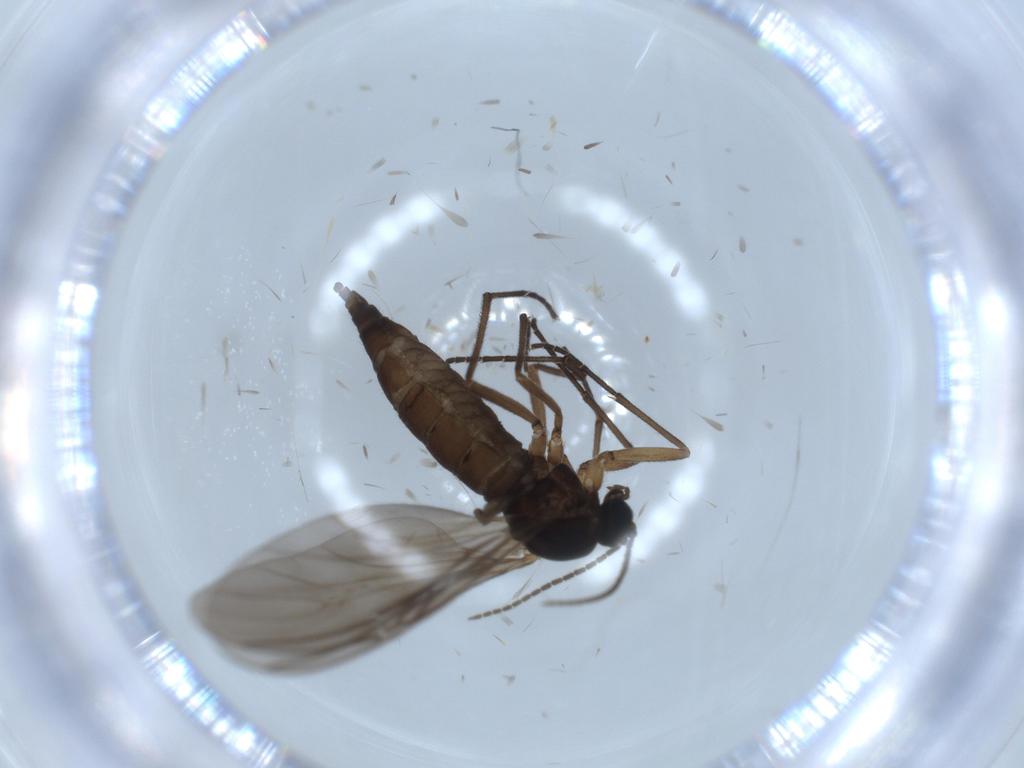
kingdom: Animalia
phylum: Arthropoda
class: Insecta
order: Diptera
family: Sciaridae
